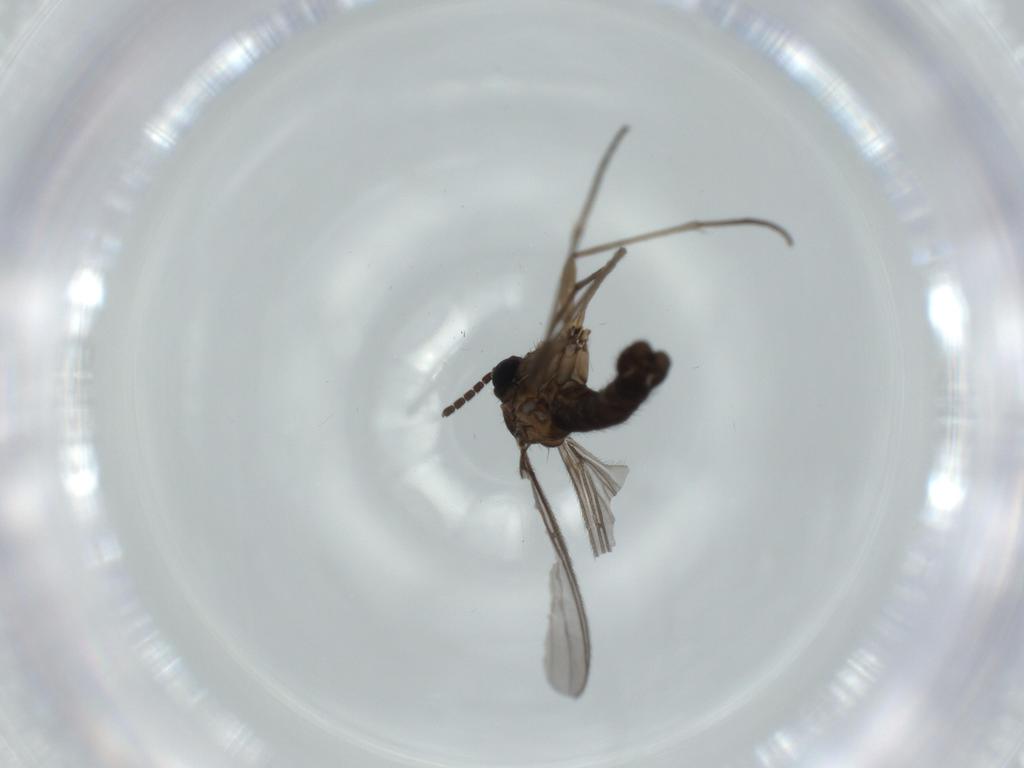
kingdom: Animalia
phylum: Arthropoda
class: Insecta
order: Diptera
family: Sciaridae
